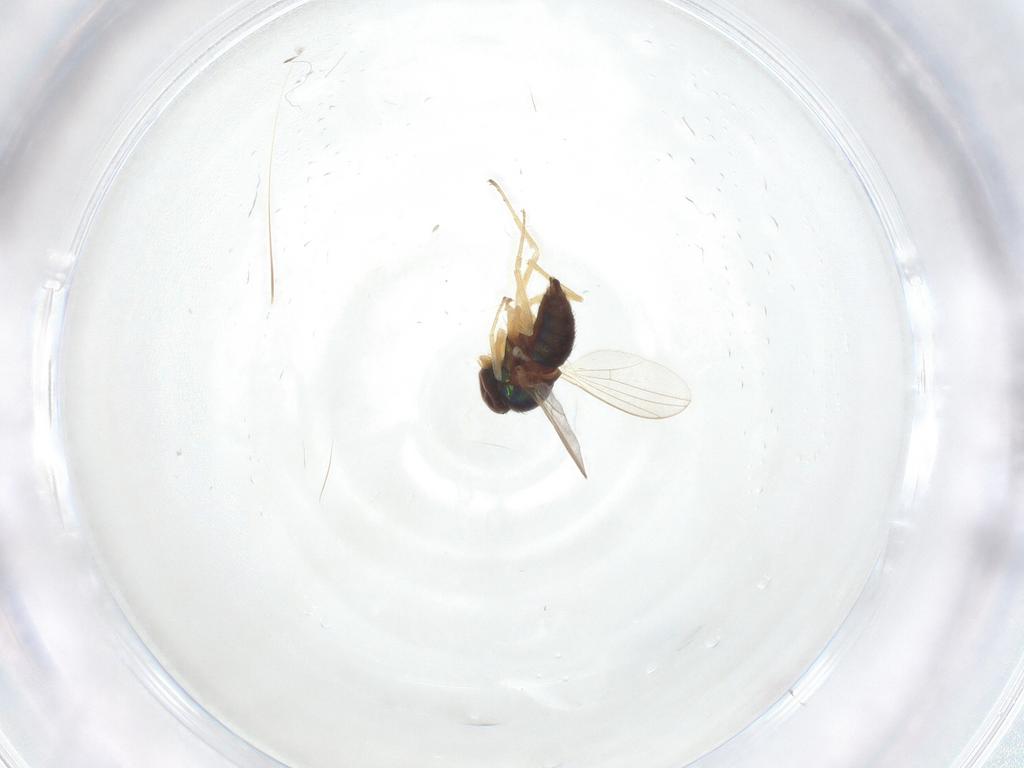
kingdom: Animalia
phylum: Arthropoda
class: Insecta
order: Diptera
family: Dolichopodidae
